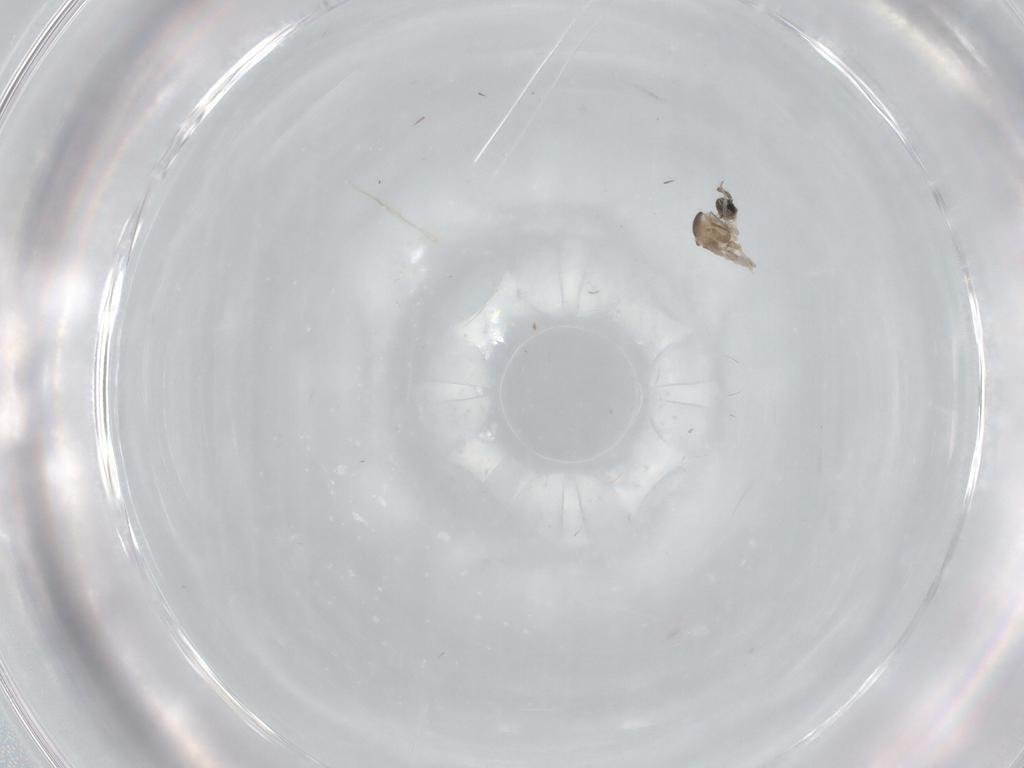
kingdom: Animalia
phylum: Arthropoda
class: Insecta
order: Diptera
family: Cecidomyiidae
